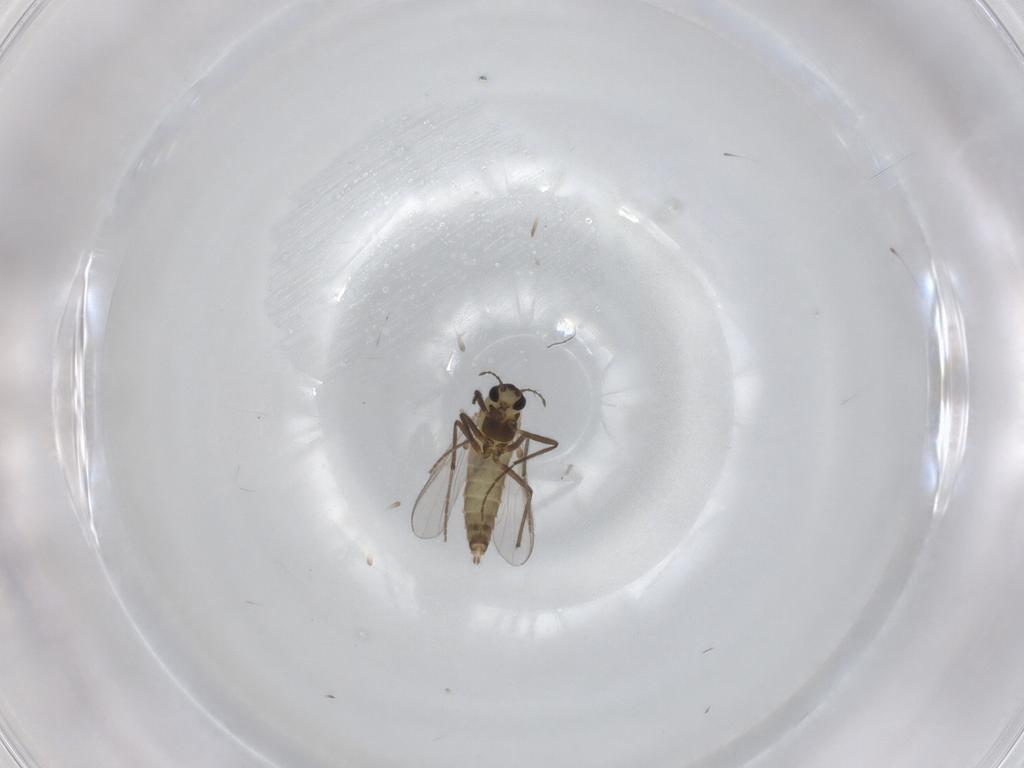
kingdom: Animalia
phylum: Arthropoda
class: Insecta
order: Diptera
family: Chironomidae
